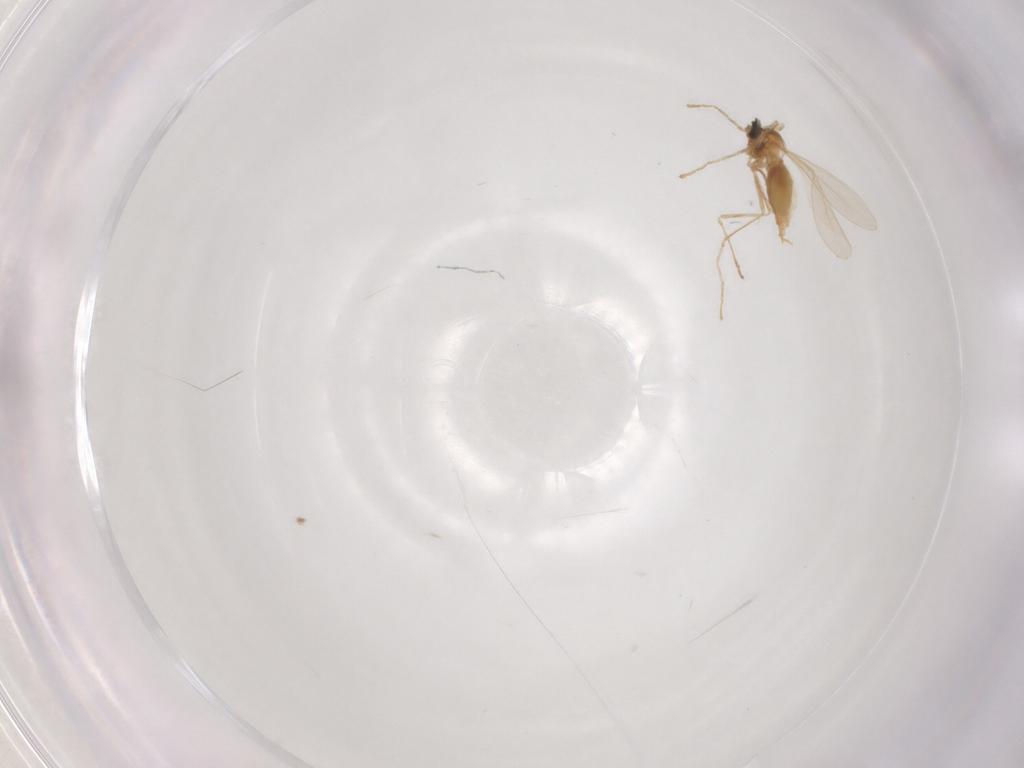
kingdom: Animalia
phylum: Arthropoda
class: Insecta
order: Diptera
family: Cecidomyiidae
